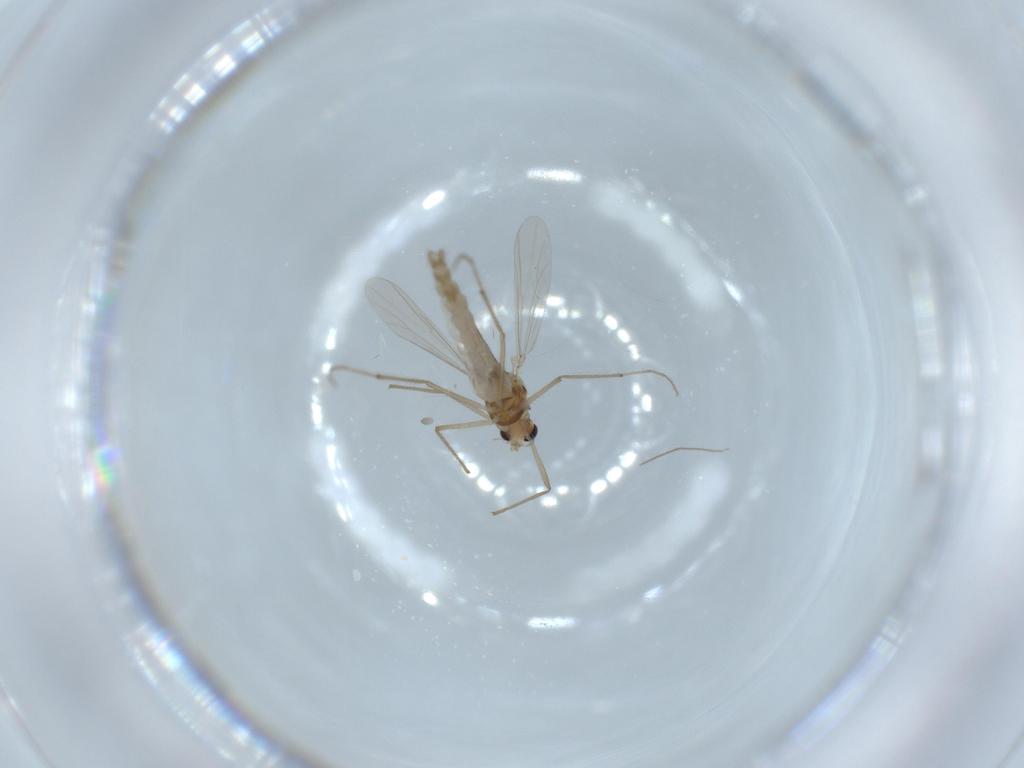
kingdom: Animalia
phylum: Arthropoda
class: Insecta
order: Diptera
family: Chironomidae
